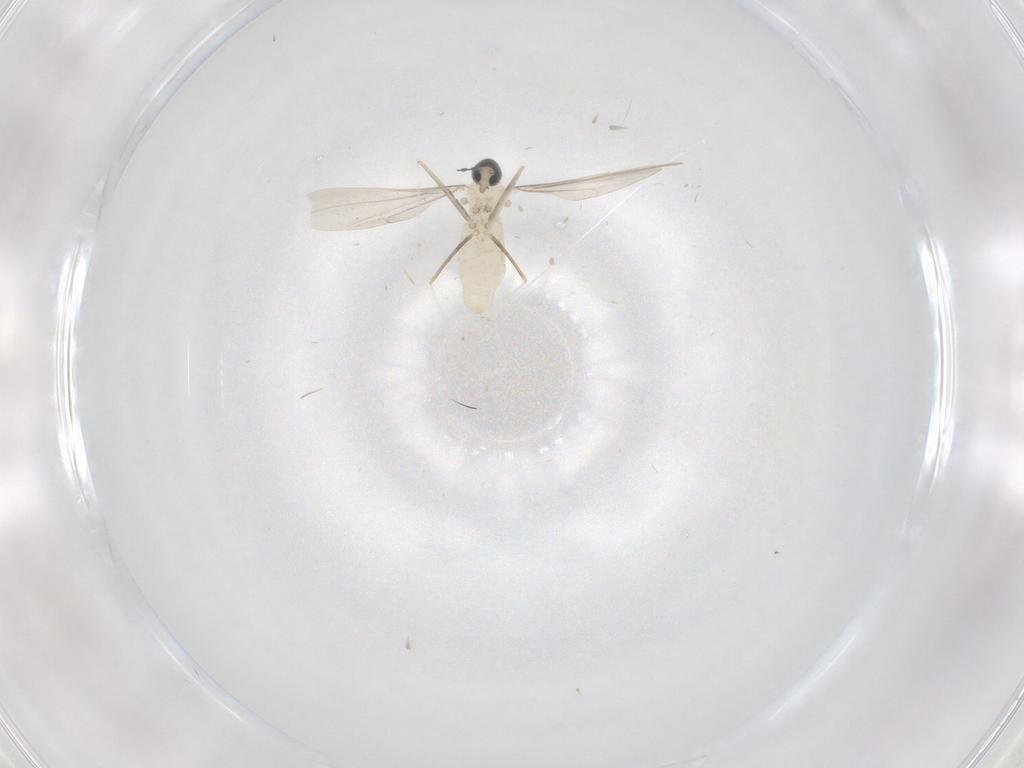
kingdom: Animalia
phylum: Arthropoda
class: Insecta
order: Diptera
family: Cecidomyiidae
